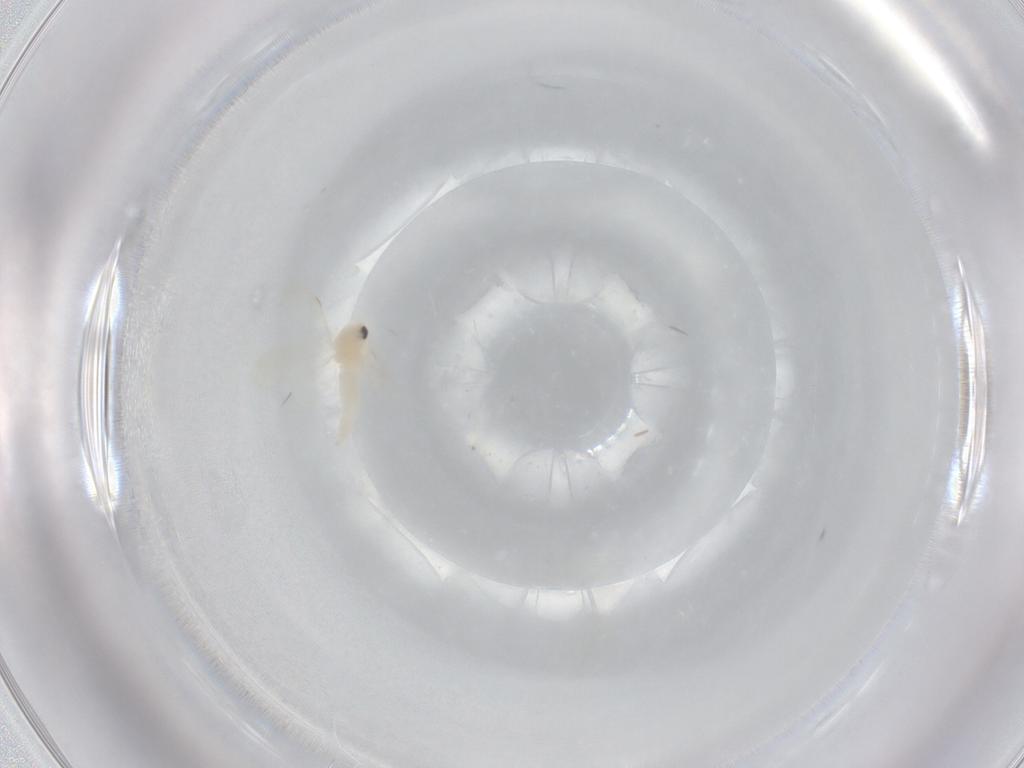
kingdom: Animalia
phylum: Arthropoda
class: Insecta
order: Hemiptera
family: Aleyrodidae
